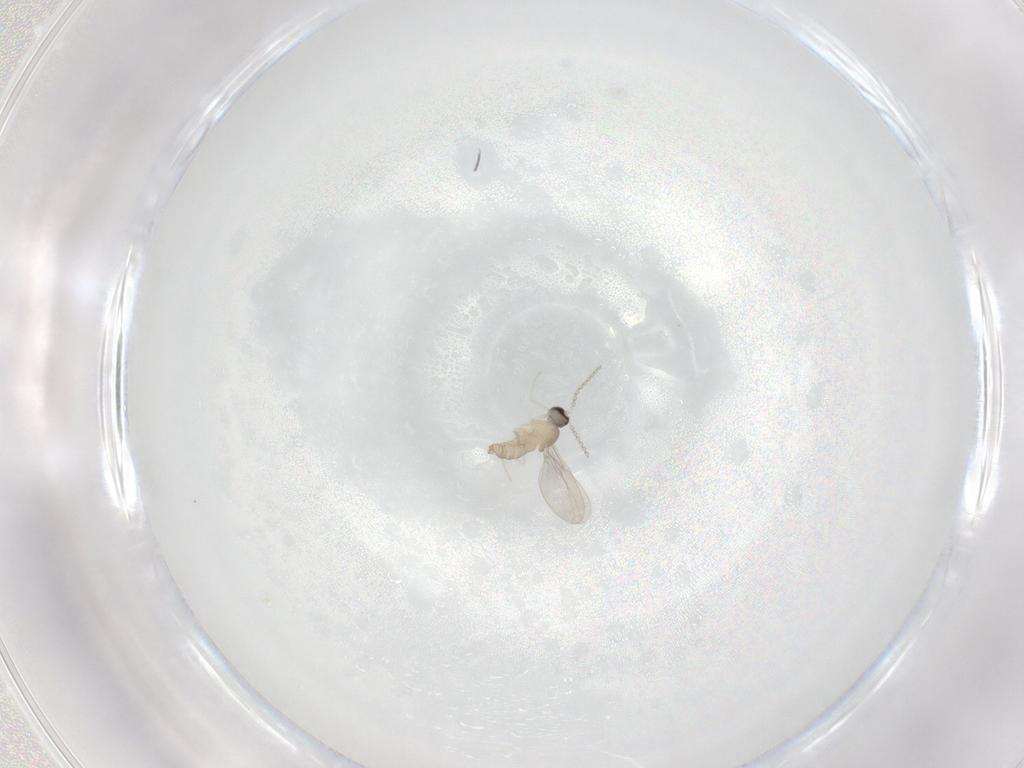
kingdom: Animalia
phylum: Arthropoda
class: Insecta
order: Diptera
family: Cecidomyiidae
